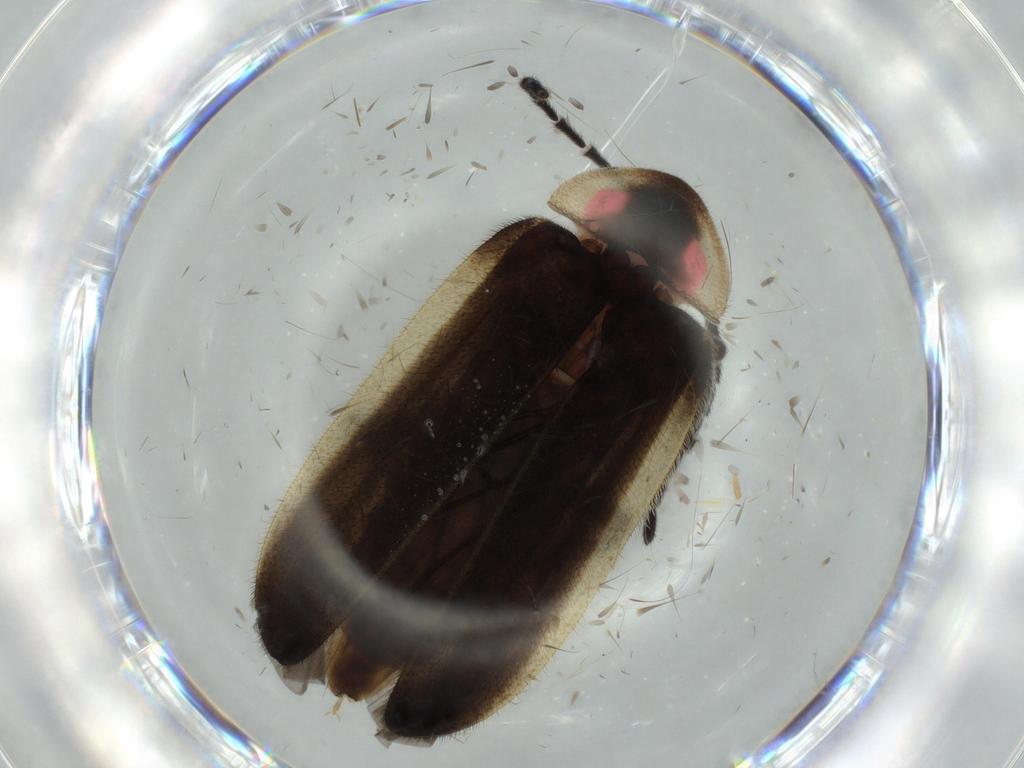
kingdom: Animalia
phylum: Arthropoda
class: Insecta
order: Coleoptera
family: Lampyridae
